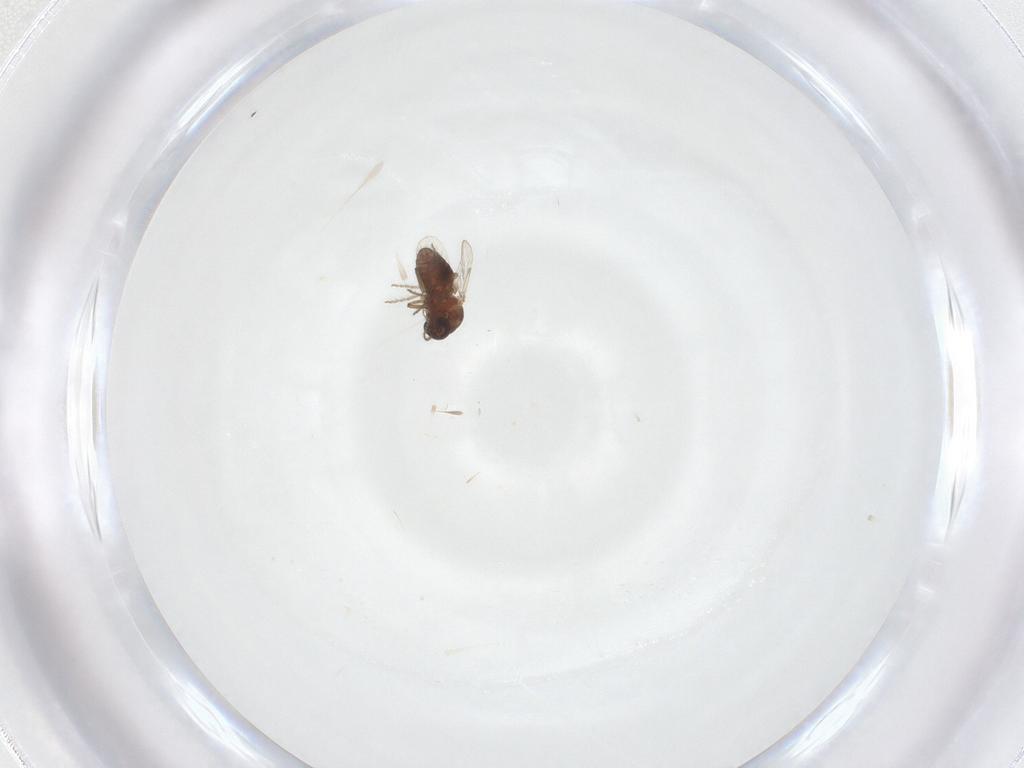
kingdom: Animalia
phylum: Arthropoda
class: Insecta
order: Diptera
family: Ceratopogonidae
